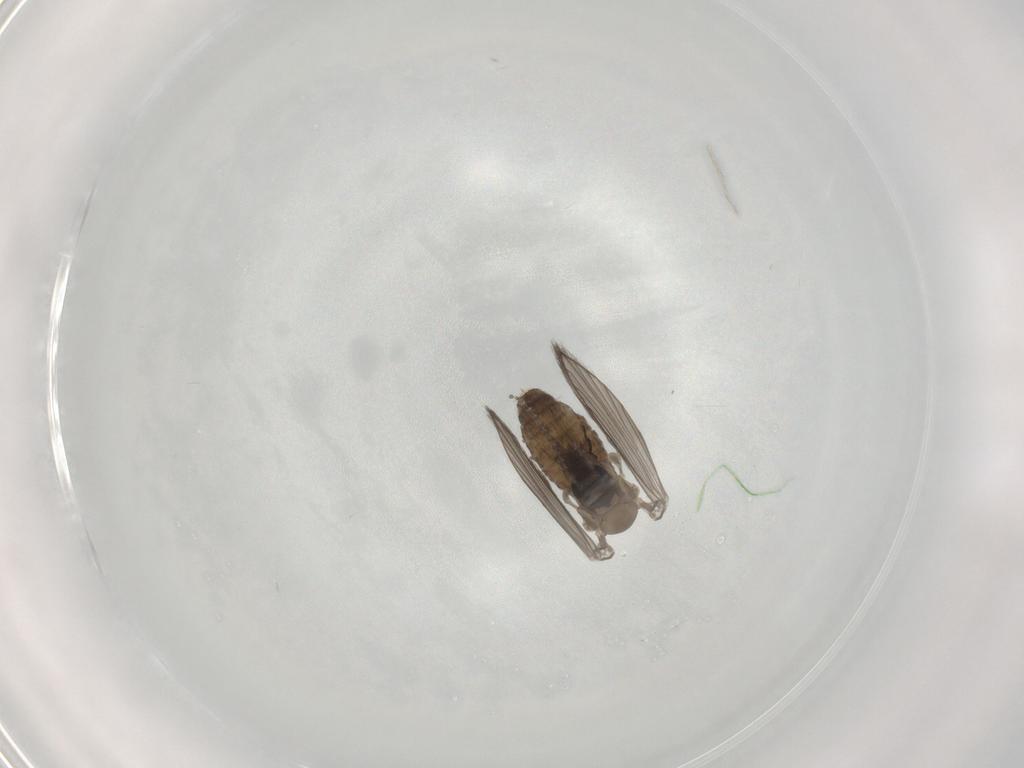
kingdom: Animalia
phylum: Arthropoda
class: Insecta
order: Diptera
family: Psychodidae
